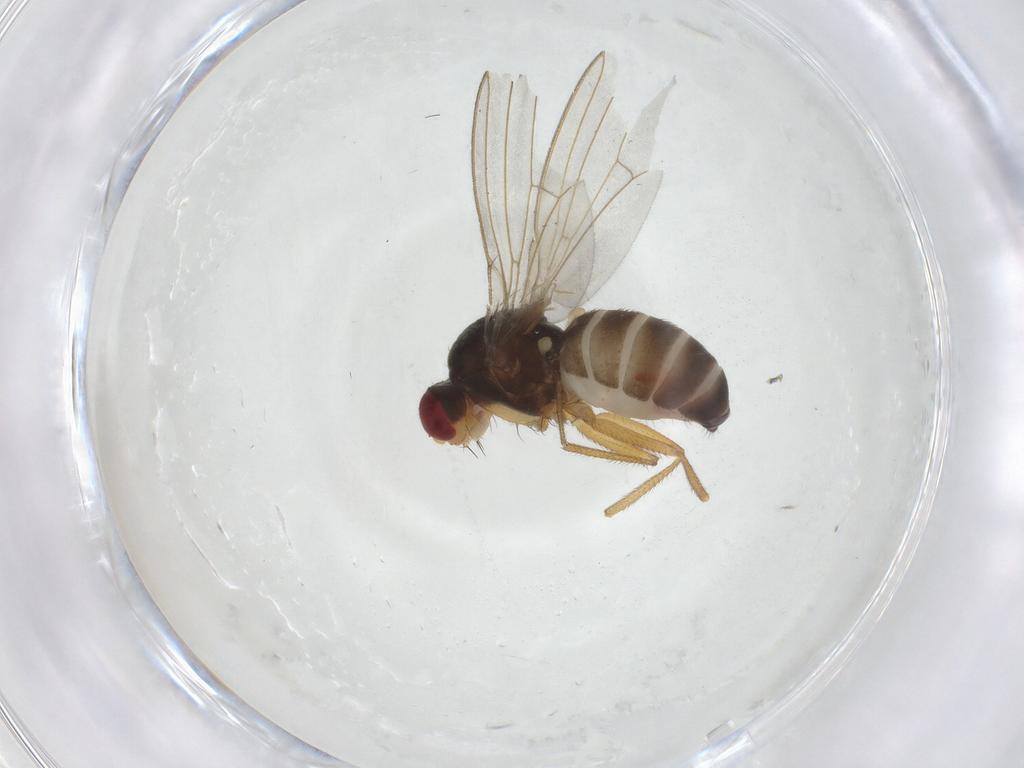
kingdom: Animalia
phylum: Arthropoda
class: Insecta
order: Diptera
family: Drosophilidae
